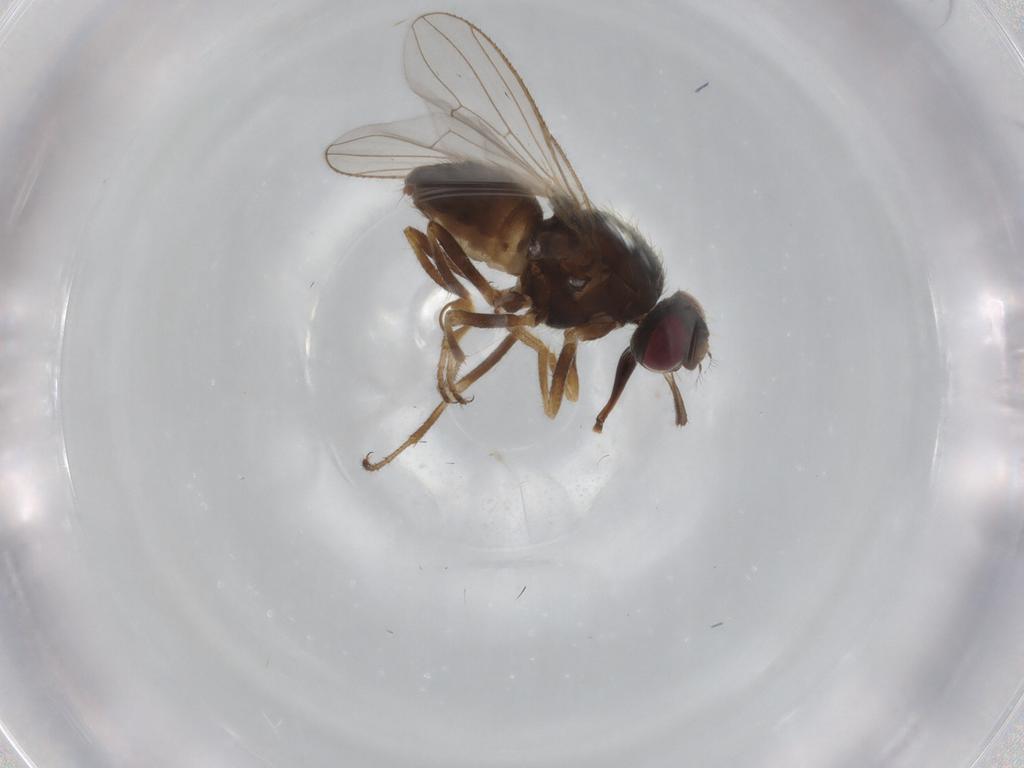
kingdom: Animalia
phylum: Arthropoda
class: Insecta
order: Diptera
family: Muscidae
